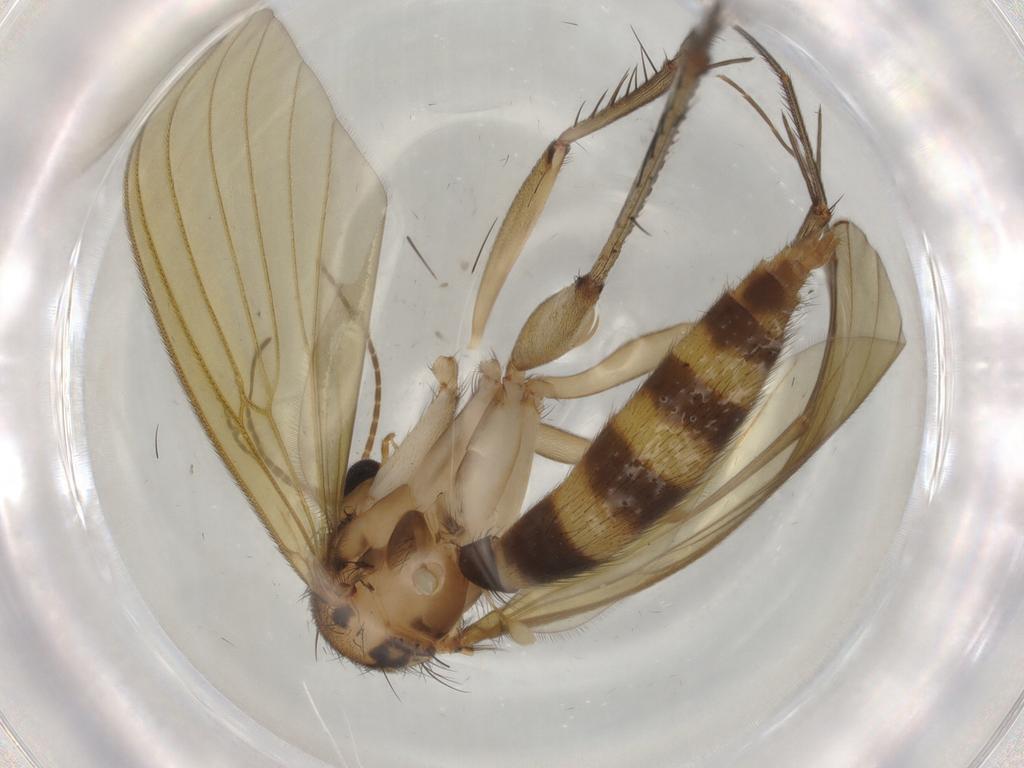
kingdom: Animalia
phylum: Arthropoda
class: Insecta
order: Diptera
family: Mycetophilidae
